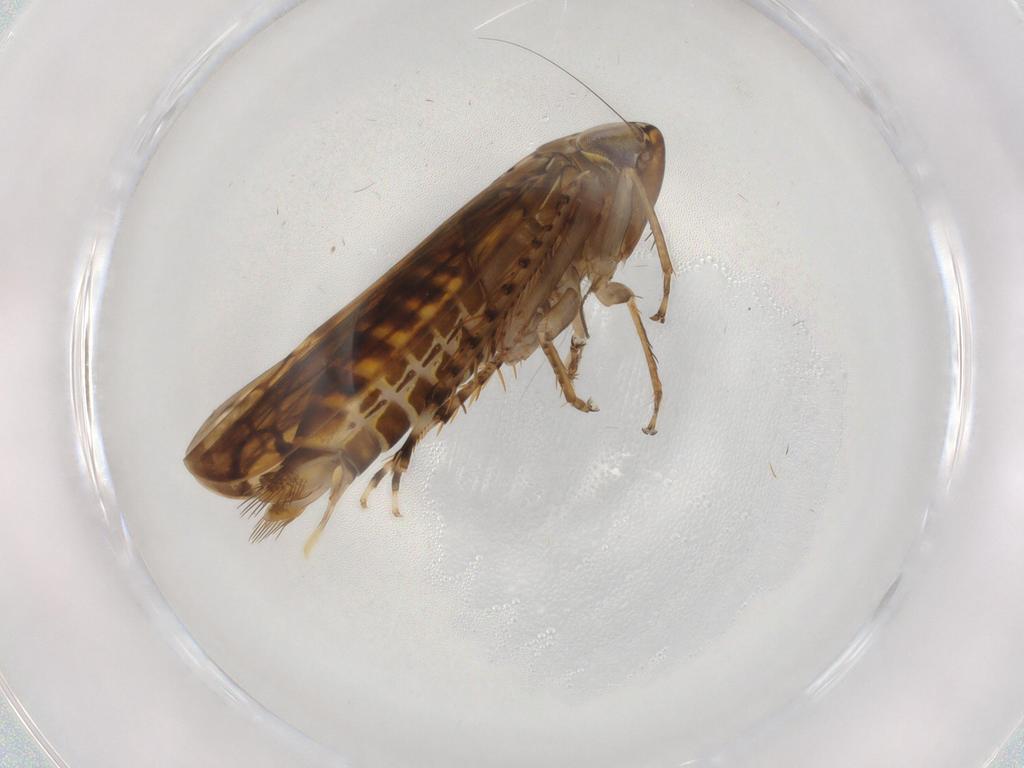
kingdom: Animalia
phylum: Arthropoda
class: Insecta
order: Hemiptera
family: Cicadellidae
